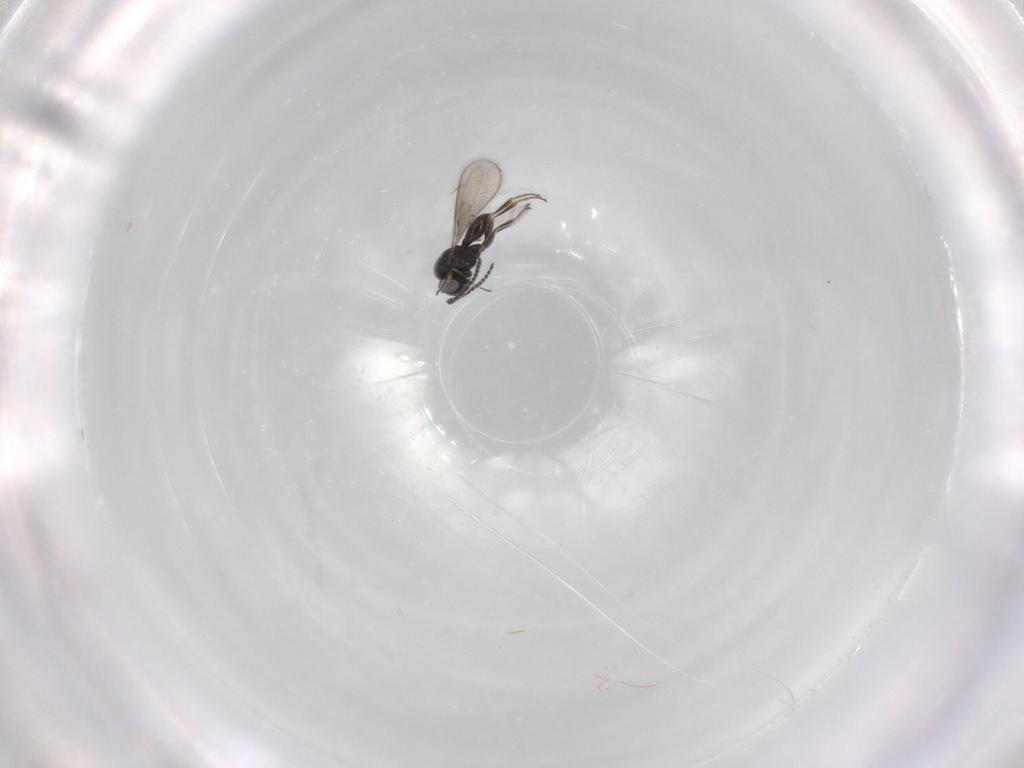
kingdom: Animalia
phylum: Arthropoda
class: Insecta
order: Hymenoptera
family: Scelionidae
